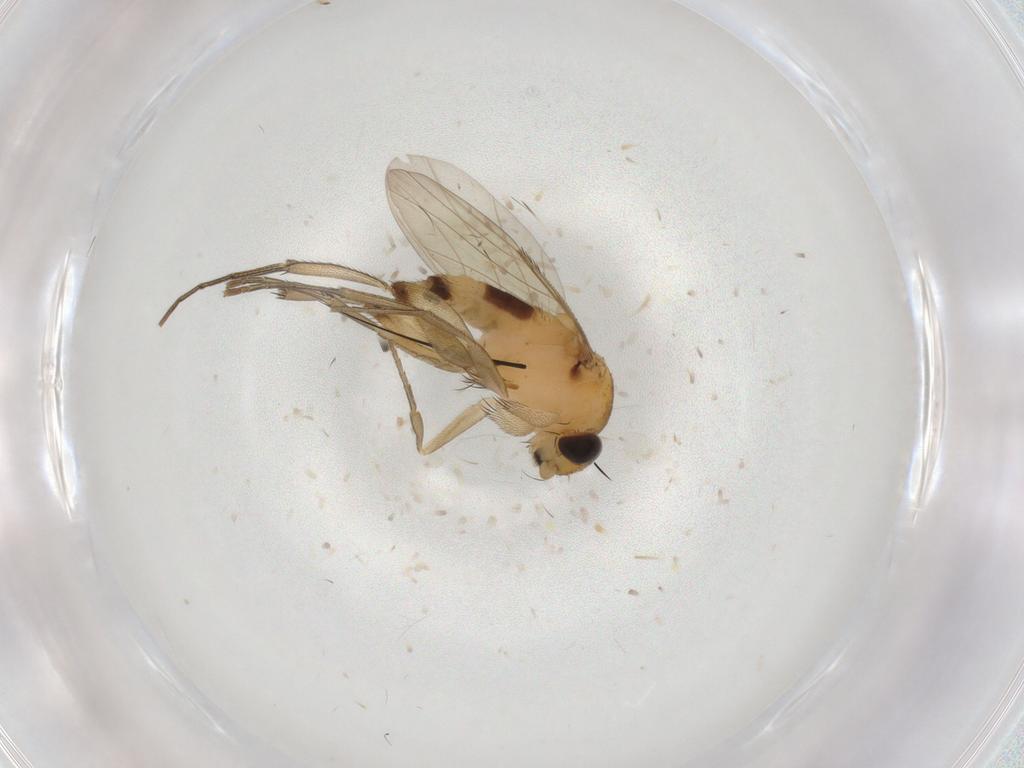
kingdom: Animalia
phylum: Arthropoda
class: Insecta
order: Diptera
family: Phoridae
